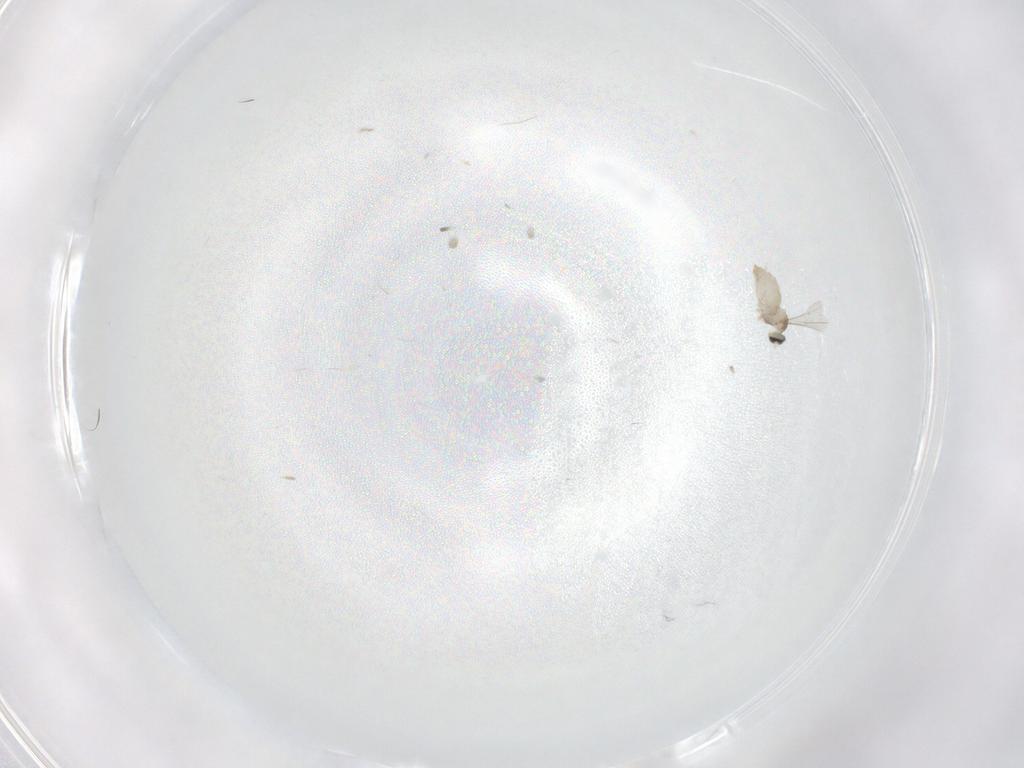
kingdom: Animalia
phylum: Arthropoda
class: Insecta
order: Diptera
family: Cecidomyiidae
